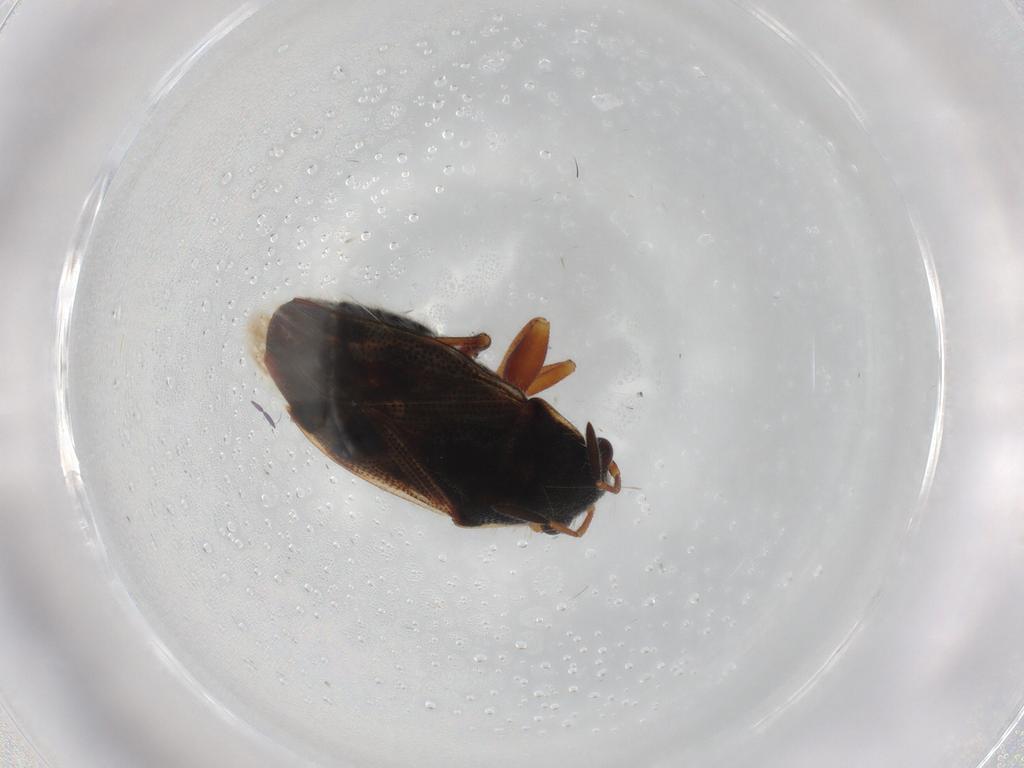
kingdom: Animalia
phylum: Arthropoda
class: Insecta
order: Hemiptera
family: Cymidae
